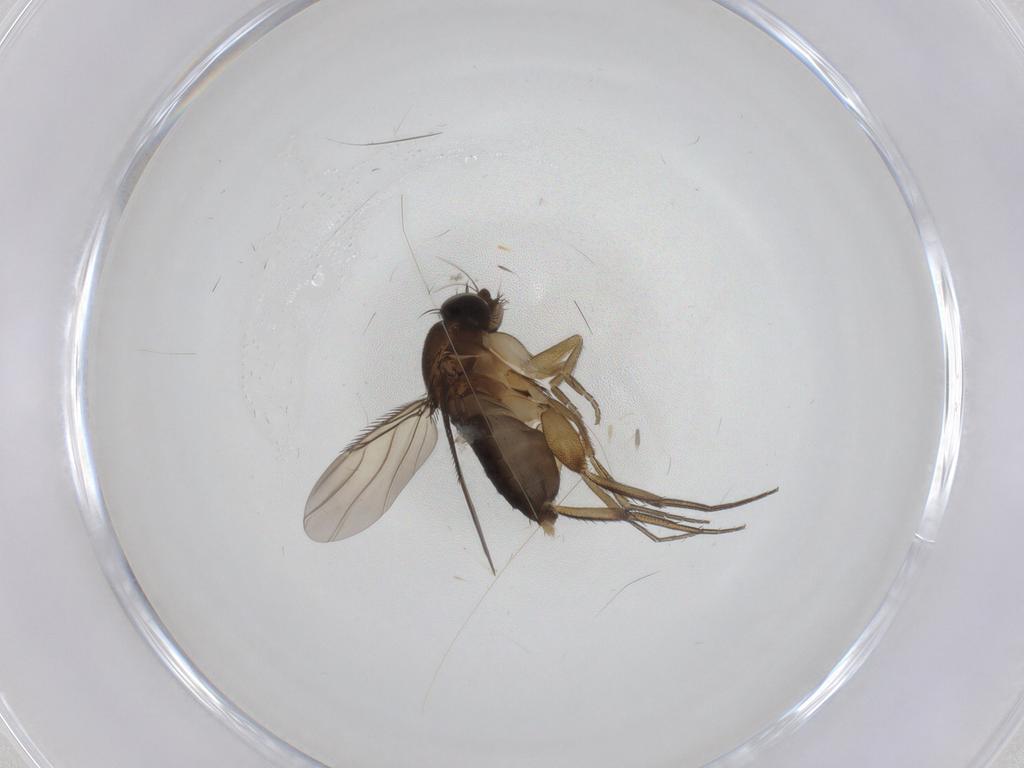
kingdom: Animalia
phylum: Arthropoda
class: Insecta
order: Diptera
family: Phoridae
